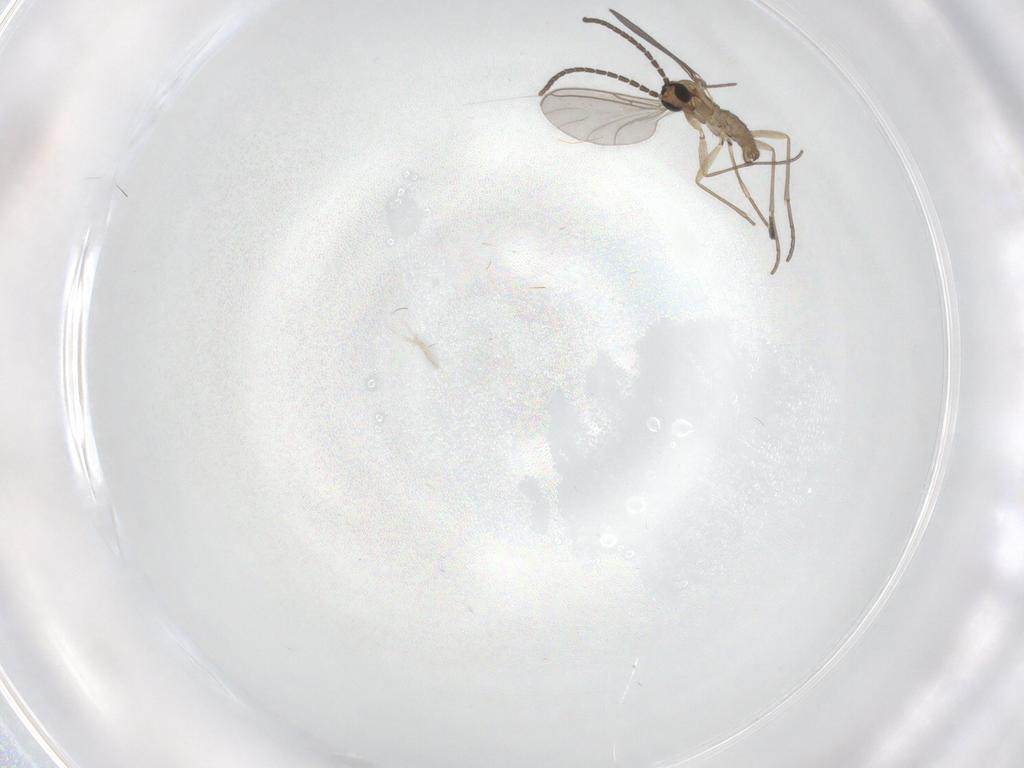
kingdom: Animalia
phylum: Arthropoda
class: Insecta
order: Diptera
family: Sciaridae
